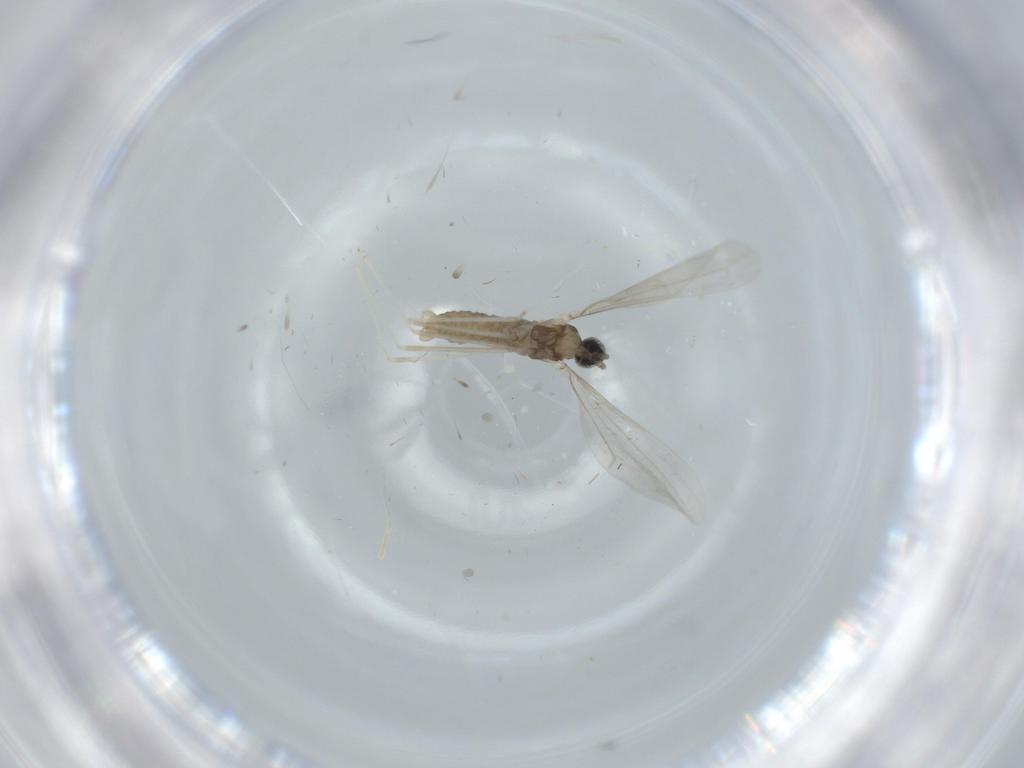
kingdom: Animalia
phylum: Arthropoda
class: Insecta
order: Diptera
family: Cecidomyiidae
